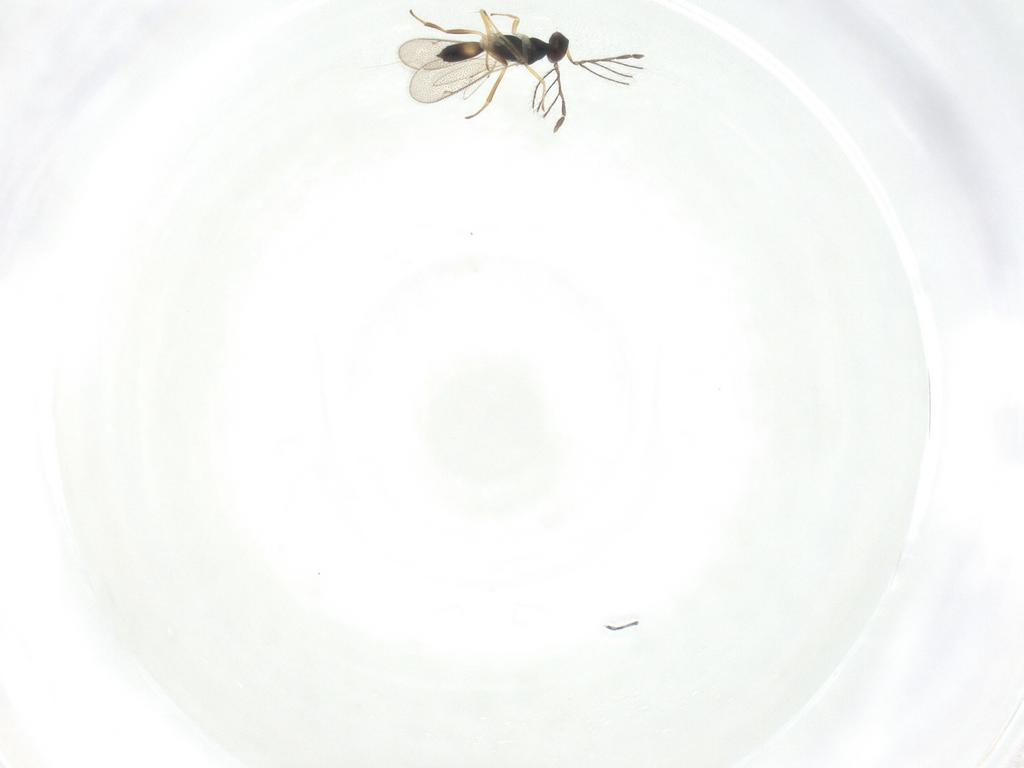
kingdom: Animalia
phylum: Arthropoda
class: Insecta
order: Hymenoptera
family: Eulophidae
